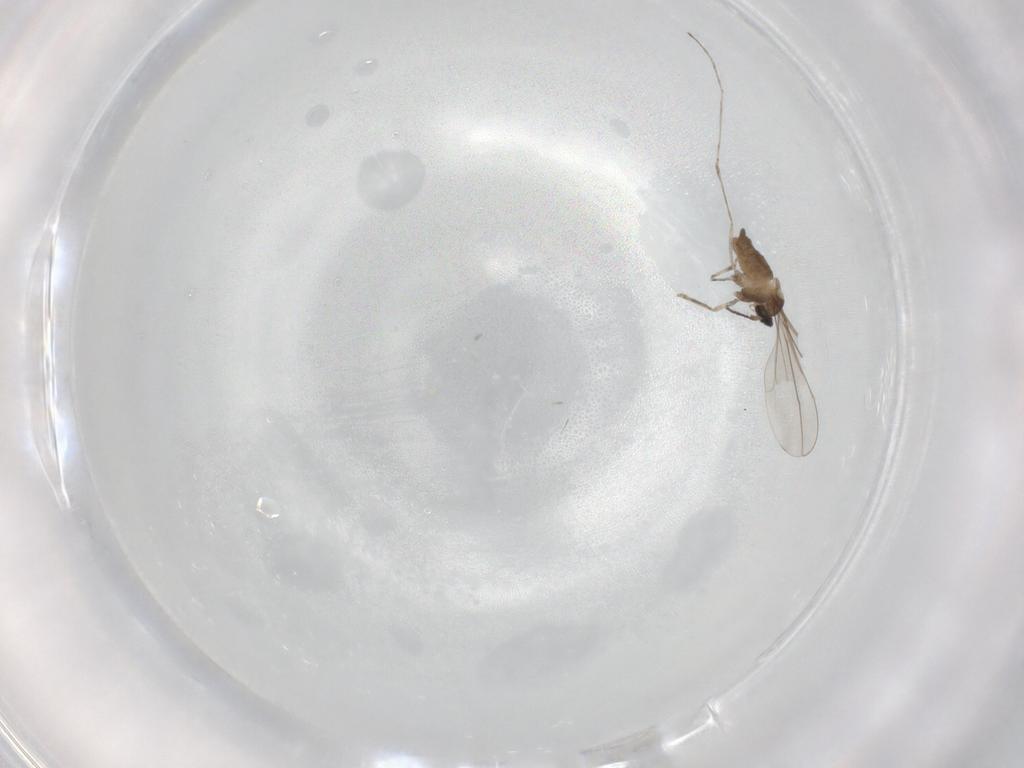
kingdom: Animalia
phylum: Arthropoda
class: Insecta
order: Diptera
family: Cecidomyiidae
